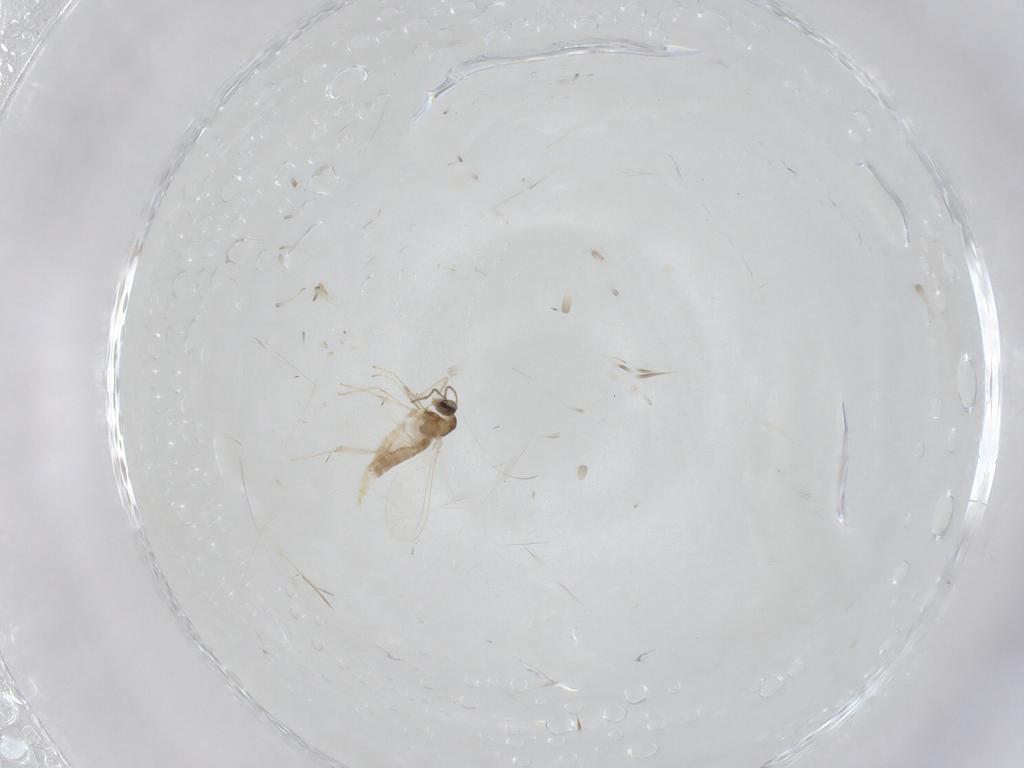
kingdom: Animalia
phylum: Arthropoda
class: Insecta
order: Diptera
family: Cecidomyiidae
